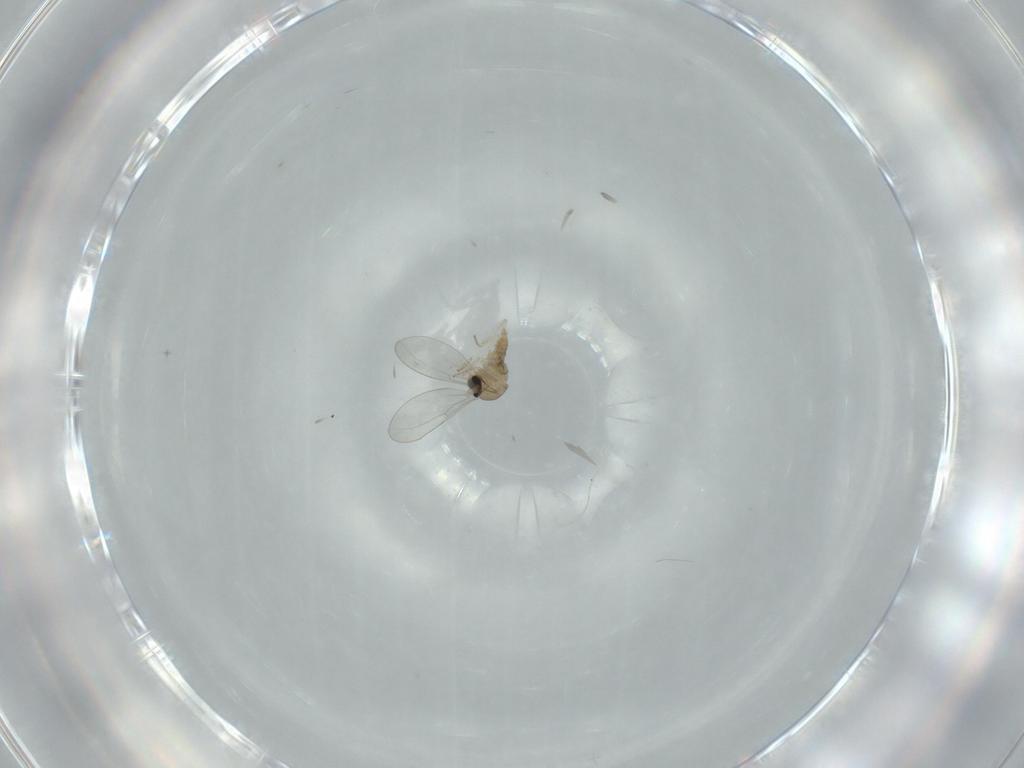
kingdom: Animalia
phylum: Arthropoda
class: Insecta
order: Diptera
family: Cecidomyiidae
